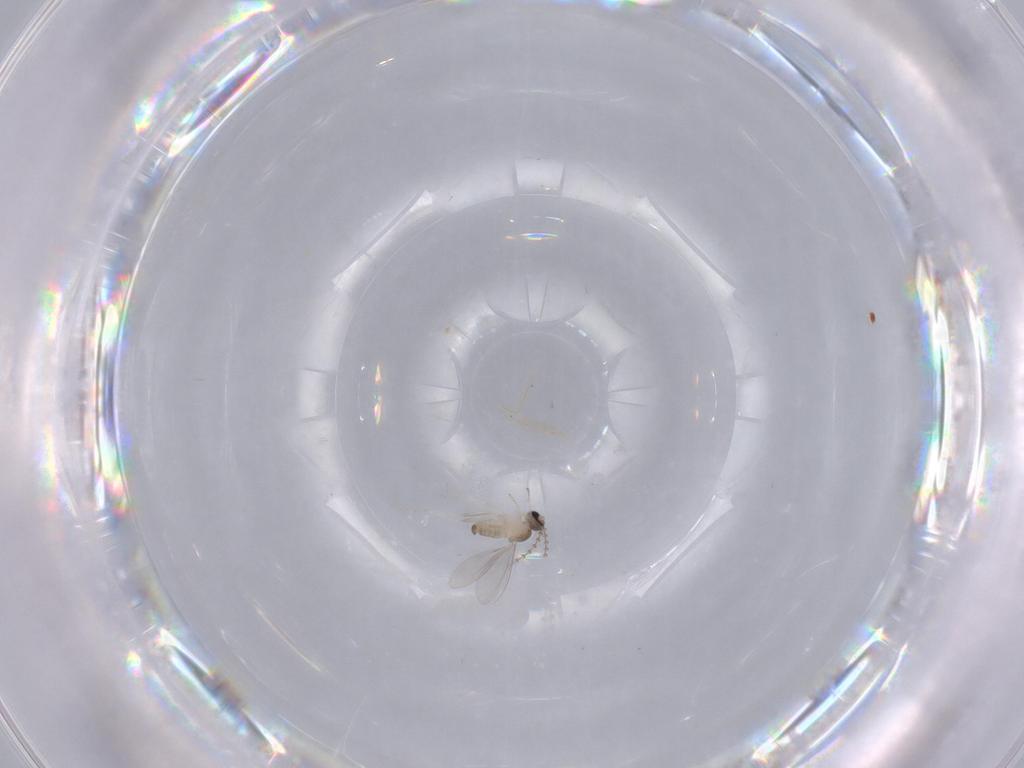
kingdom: Animalia
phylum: Arthropoda
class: Insecta
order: Diptera
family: Cecidomyiidae
